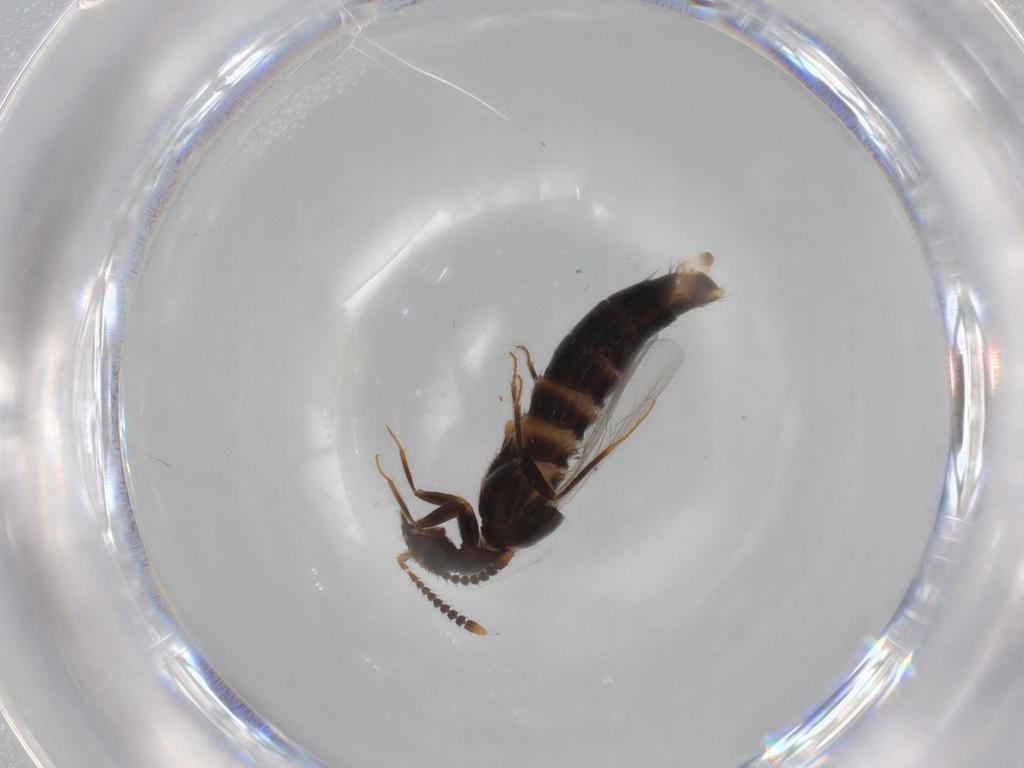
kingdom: Animalia
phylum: Arthropoda
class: Insecta
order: Coleoptera
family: Staphylinidae
